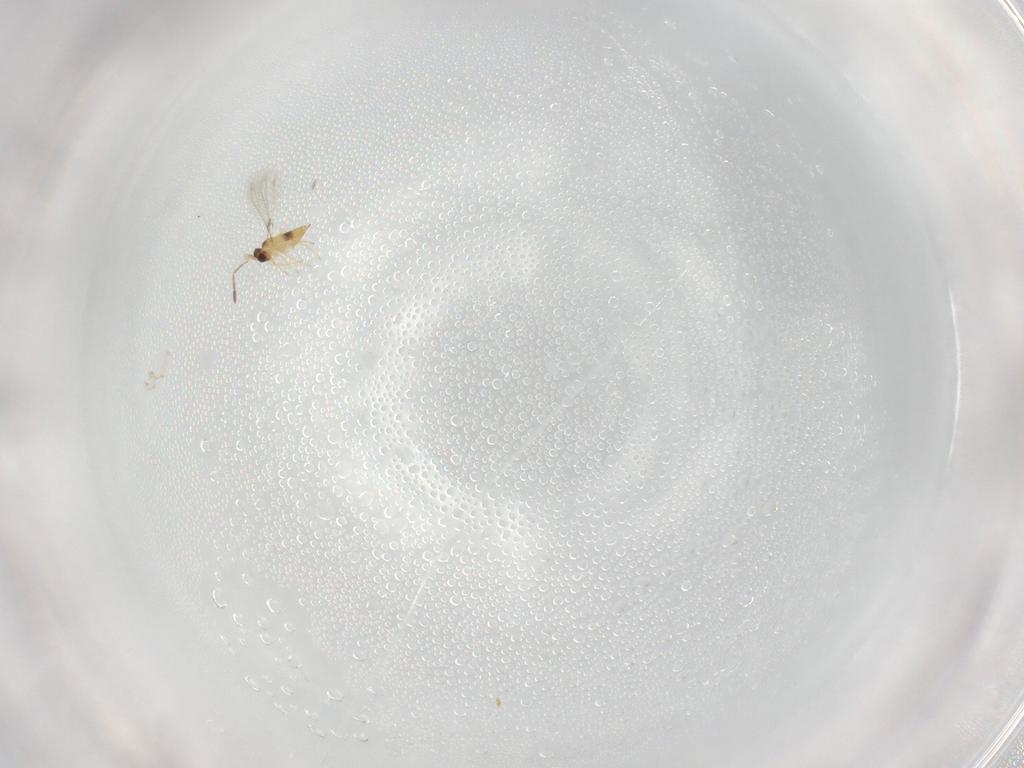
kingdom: Animalia
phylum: Arthropoda
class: Insecta
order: Hymenoptera
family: Mymaridae
